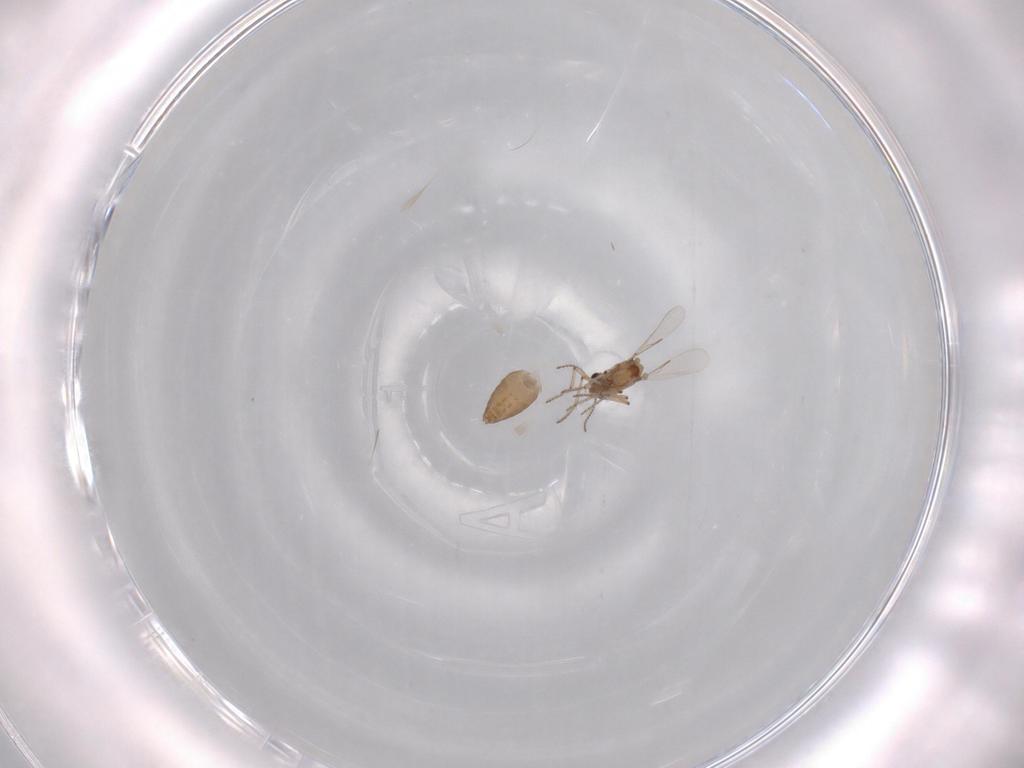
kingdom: Animalia
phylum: Arthropoda
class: Insecta
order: Diptera
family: Ceratopogonidae
